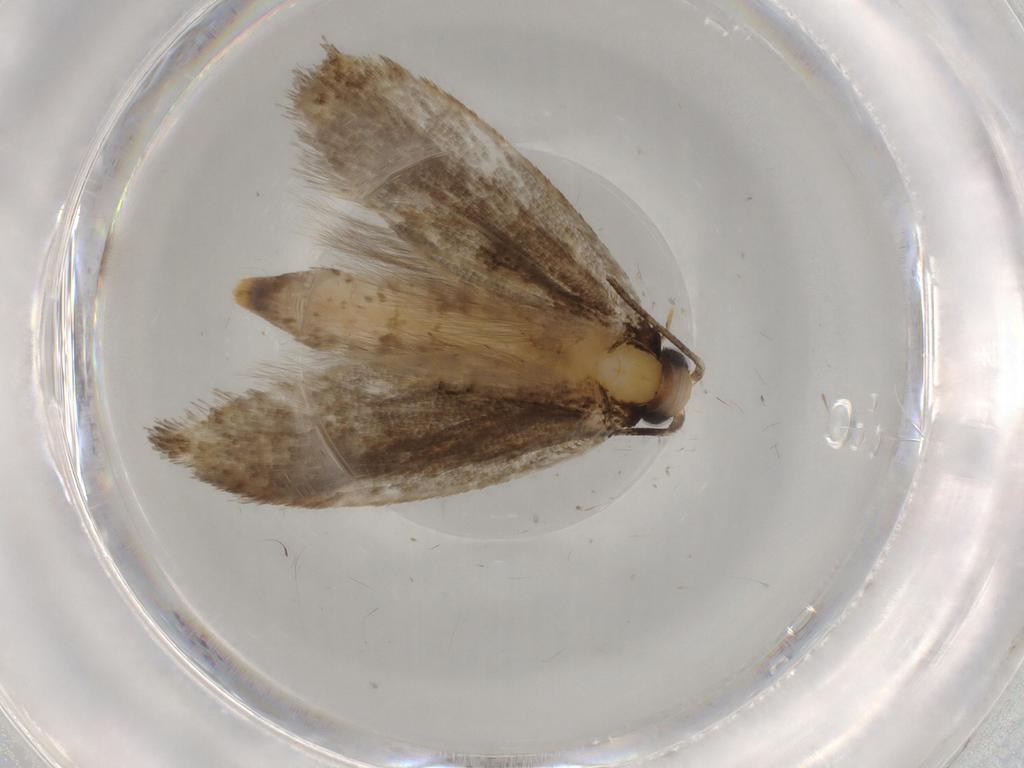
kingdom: Animalia
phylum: Arthropoda
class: Insecta
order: Lepidoptera
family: Tineidae
